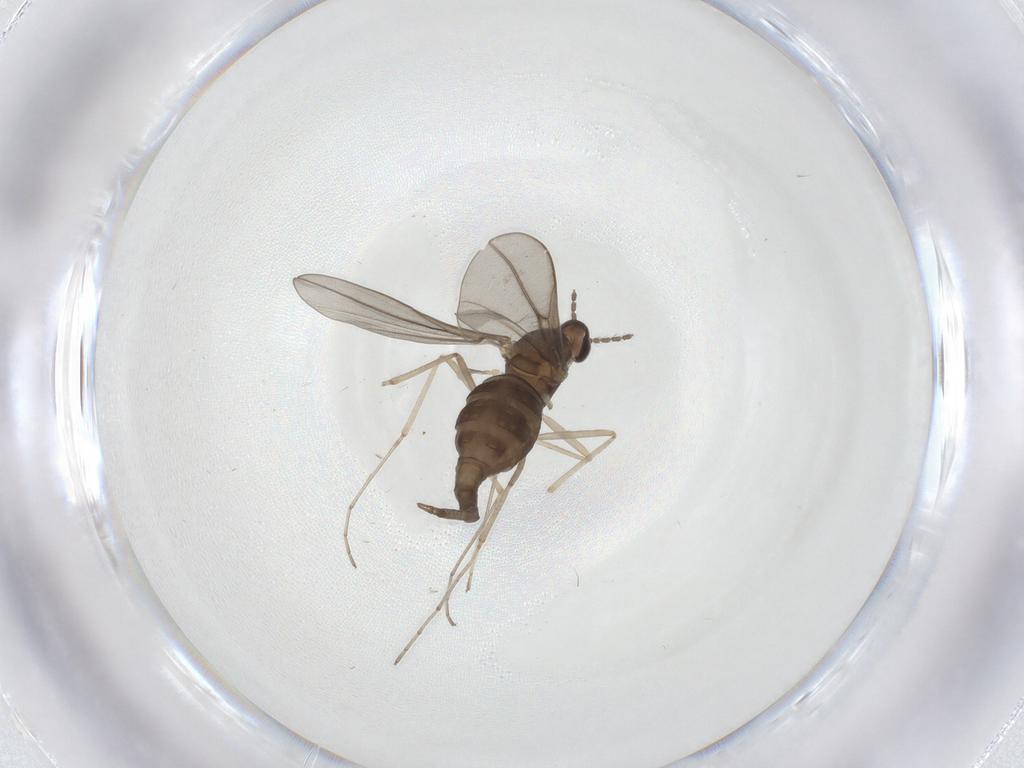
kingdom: Animalia
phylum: Arthropoda
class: Insecta
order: Diptera
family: Cecidomyiidae
